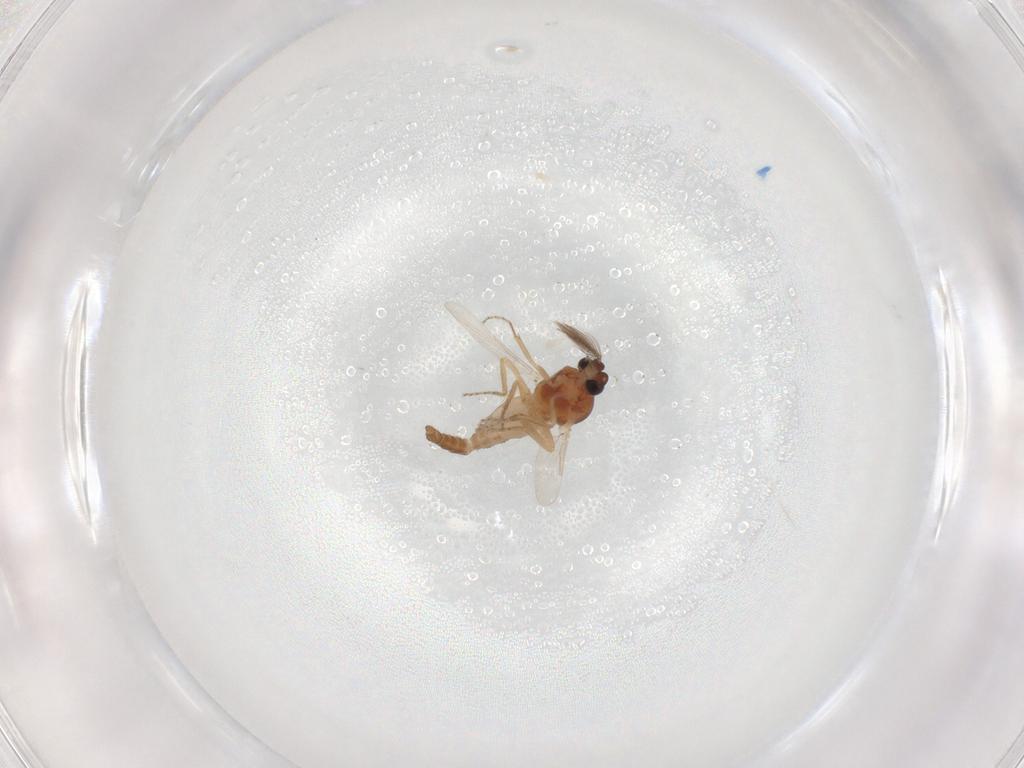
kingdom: Animalia
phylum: Arthropoda
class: Insecta
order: Diptera
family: Ceratopogonidae
